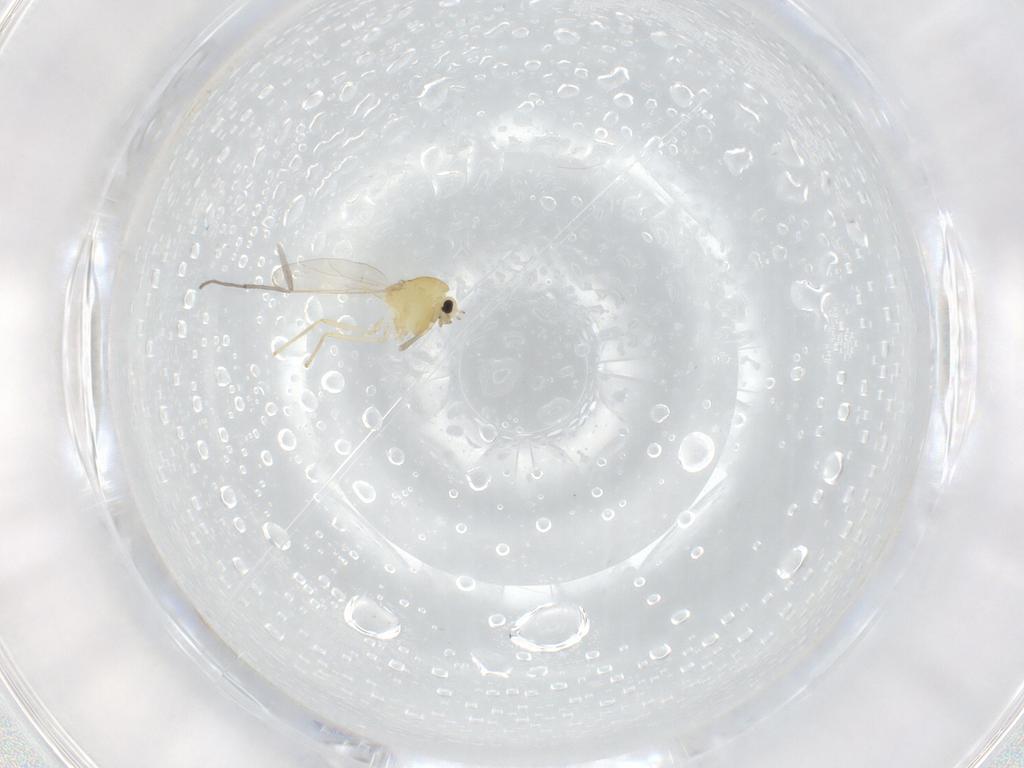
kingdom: Animalia
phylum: Arthropoda
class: Insecta
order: Diptera
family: Chironomidae
